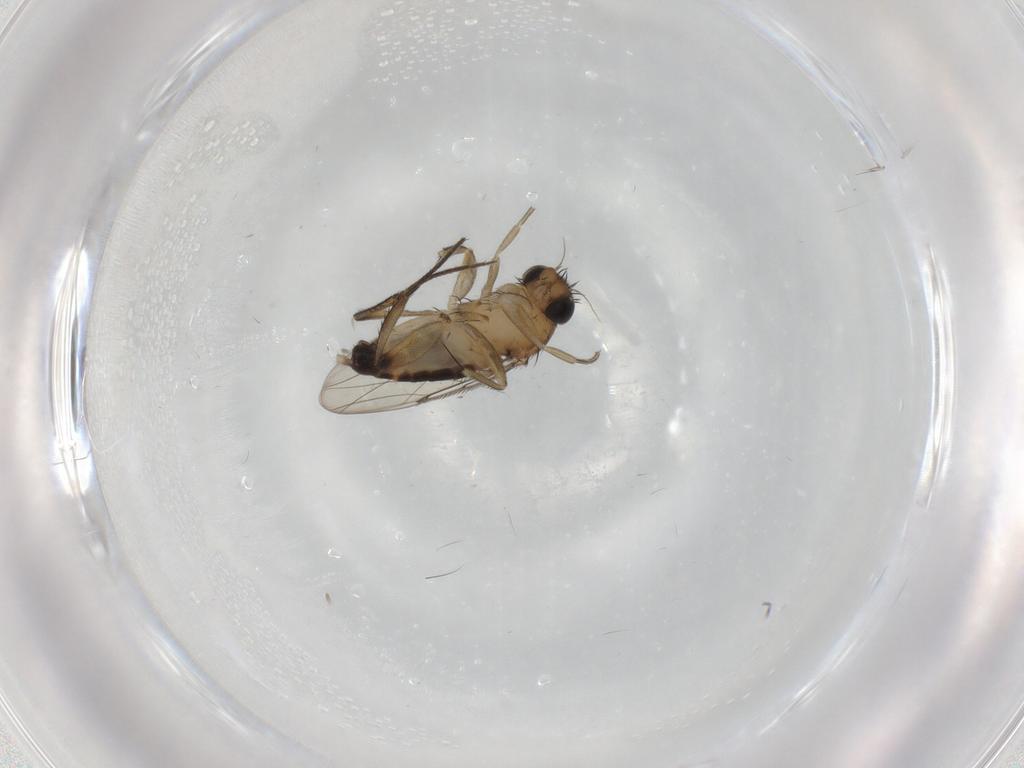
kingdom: Animalia
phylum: Arthropoda
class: Insecta
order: Diptera
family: Phoridae
